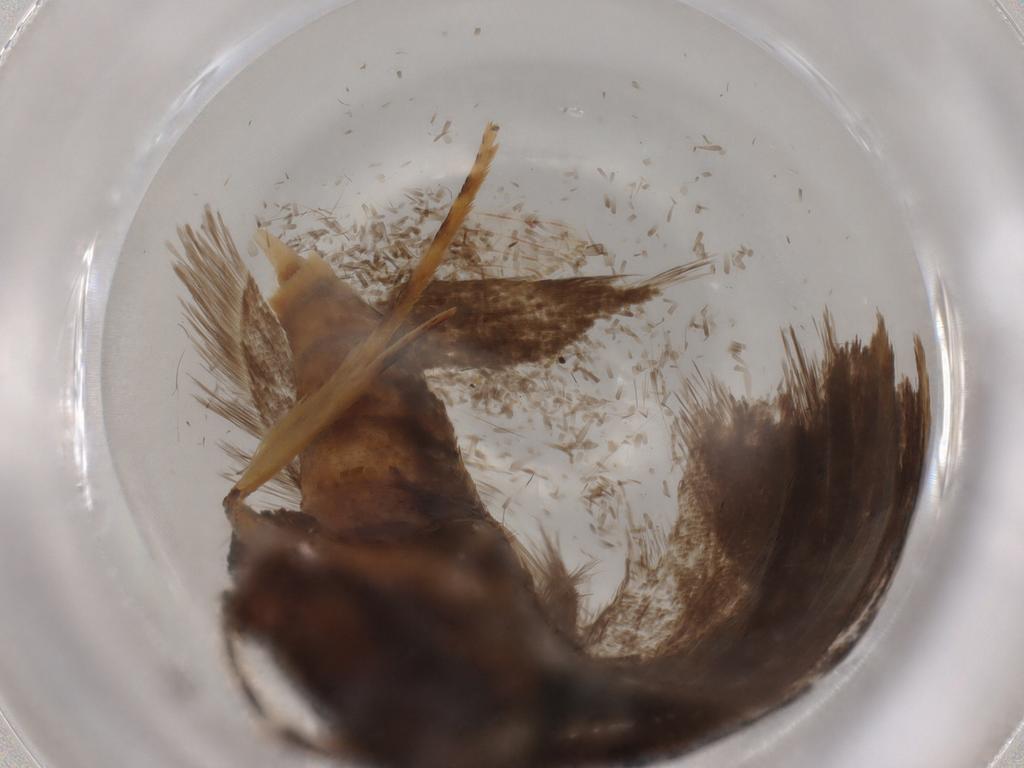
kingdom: Animalia
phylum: Arthropoda
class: Insecta
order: Lepidoptera
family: Lecithoceridae
